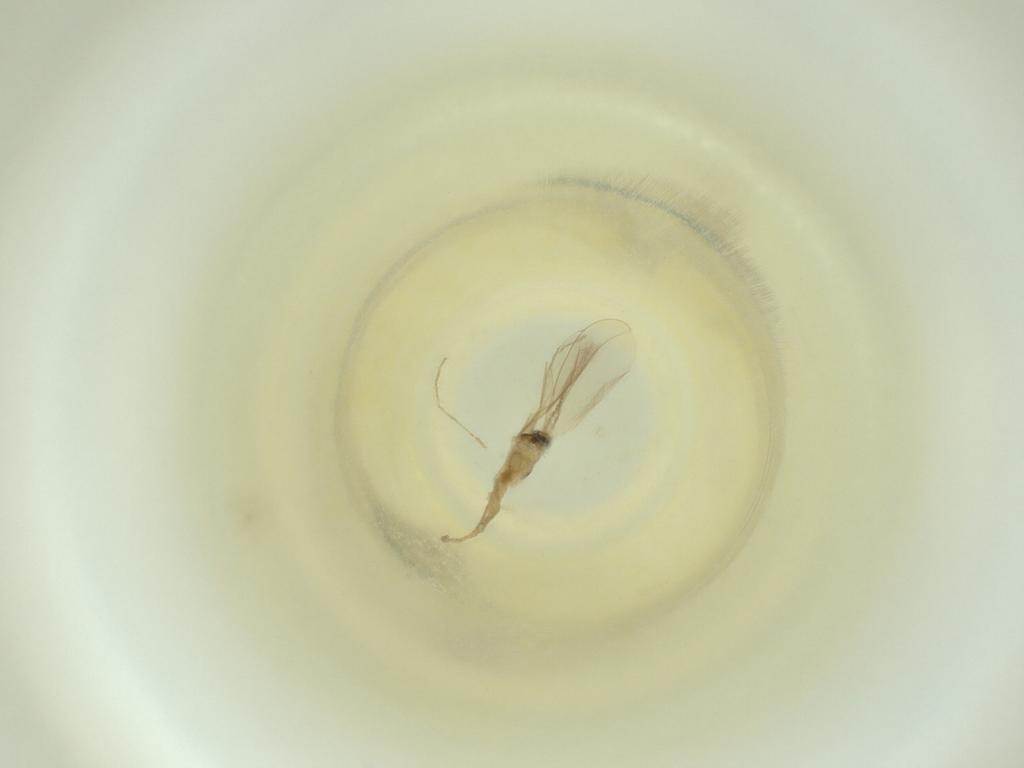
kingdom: Animalia
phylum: Arthropoda
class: Insecta
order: Diptera
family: Cecidomyiidae
